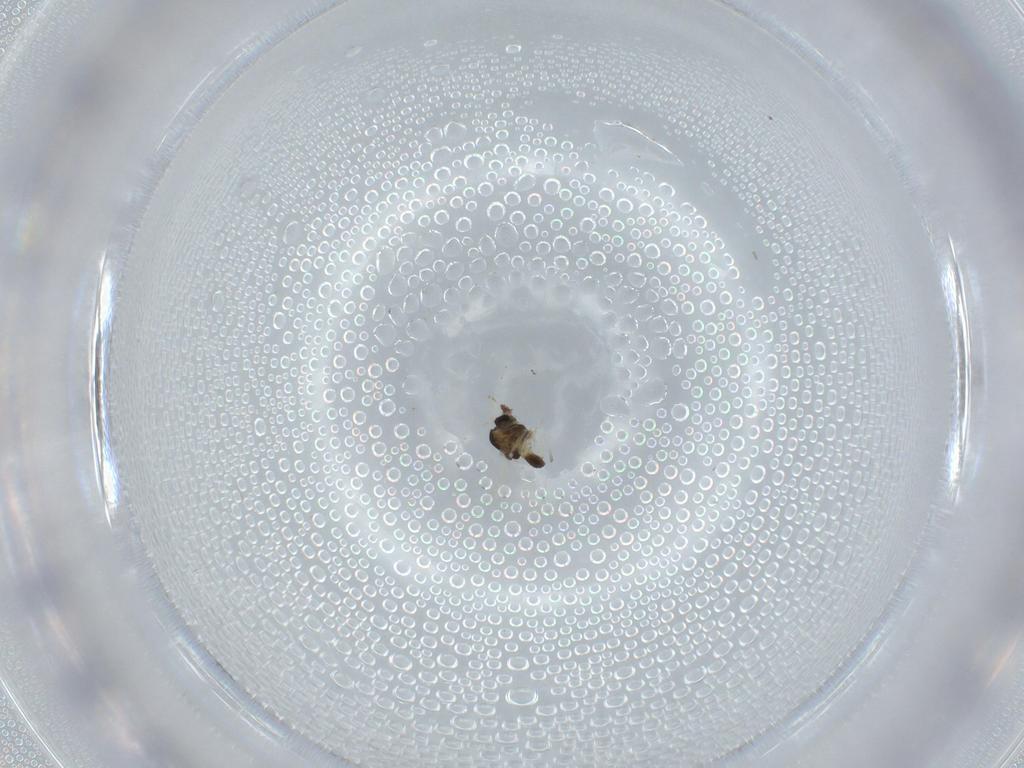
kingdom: Animalia
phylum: Arthropoda
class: Insecta
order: Diptera
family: Chironomidae
